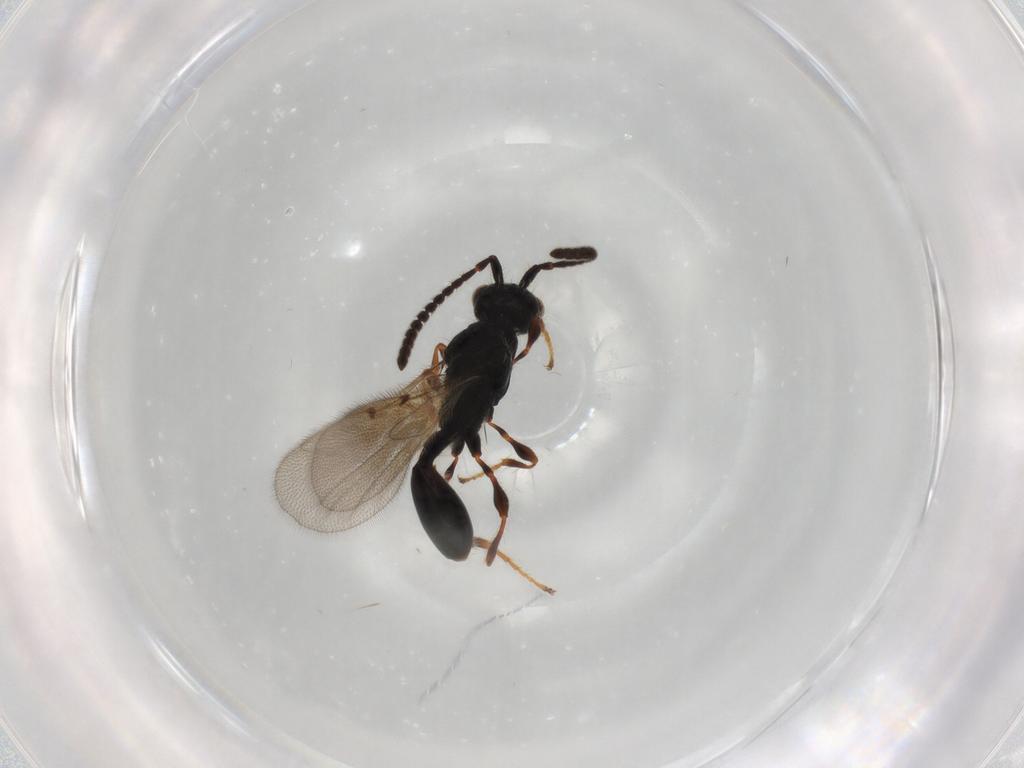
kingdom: Animalia
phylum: Arthropoda
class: Insecta
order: Hymenoptera
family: Diapriidae
